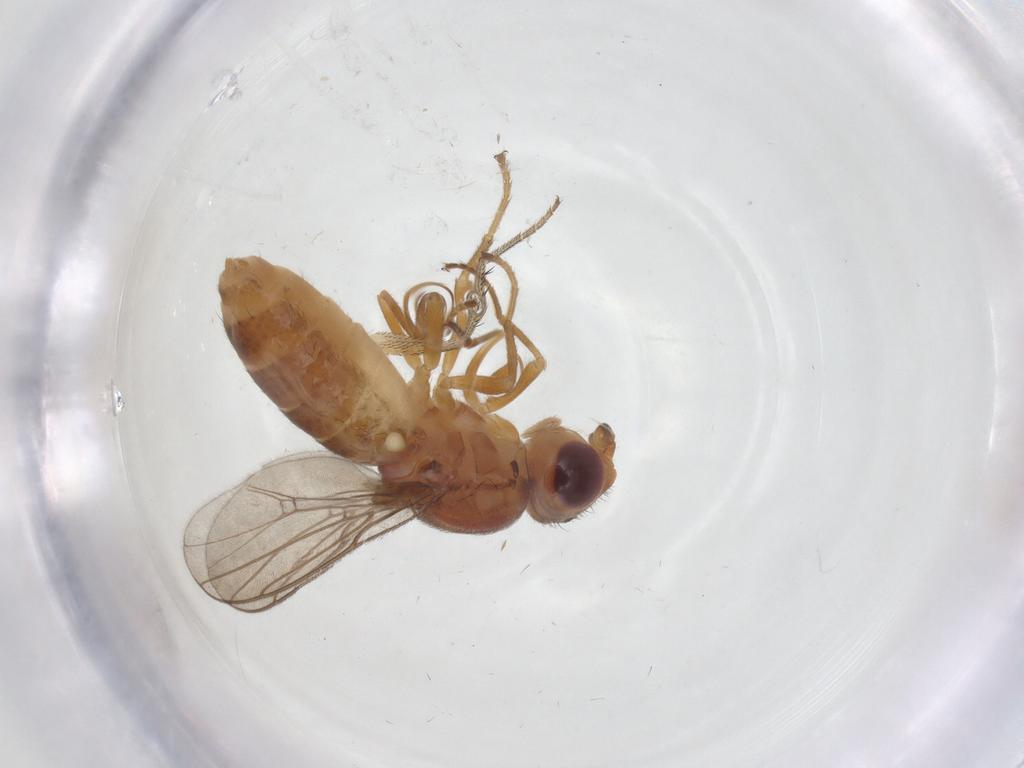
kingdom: Animalia
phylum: Arthropoda
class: Insecta
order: Diptera
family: Chloropidae
